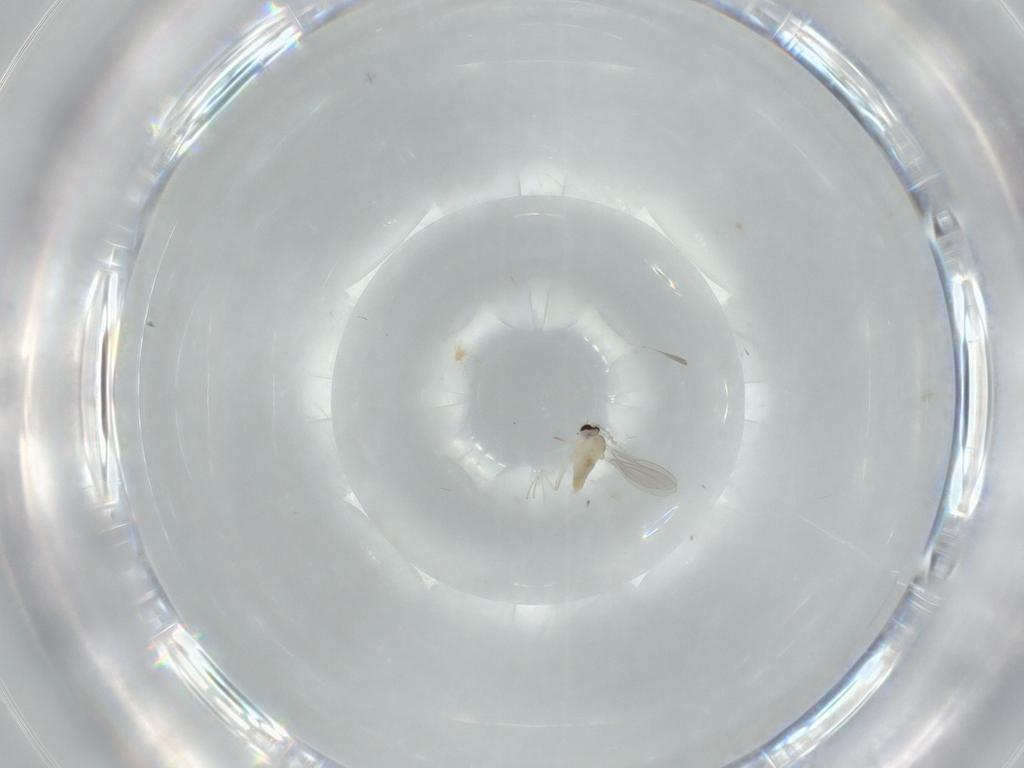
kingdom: Animalia
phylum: Arthropoda
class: Insecta
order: Diptera
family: Cecidomyiidae
